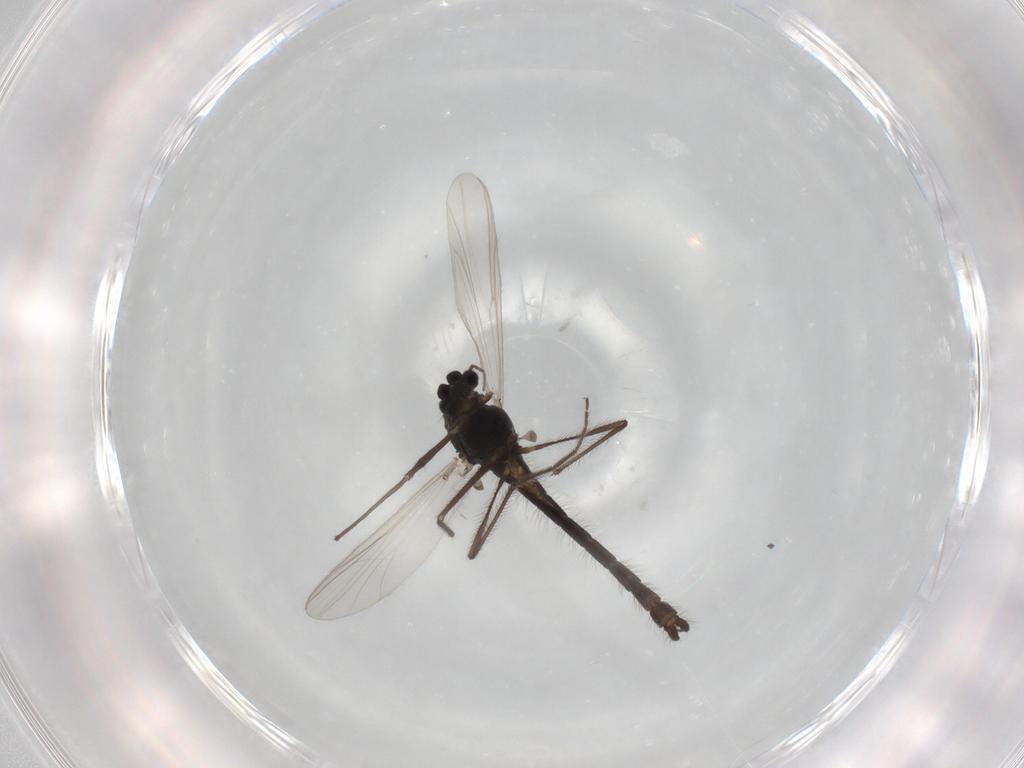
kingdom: Animalia
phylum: Arthropoda
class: Insecta
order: Diptera
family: Chironomidae
